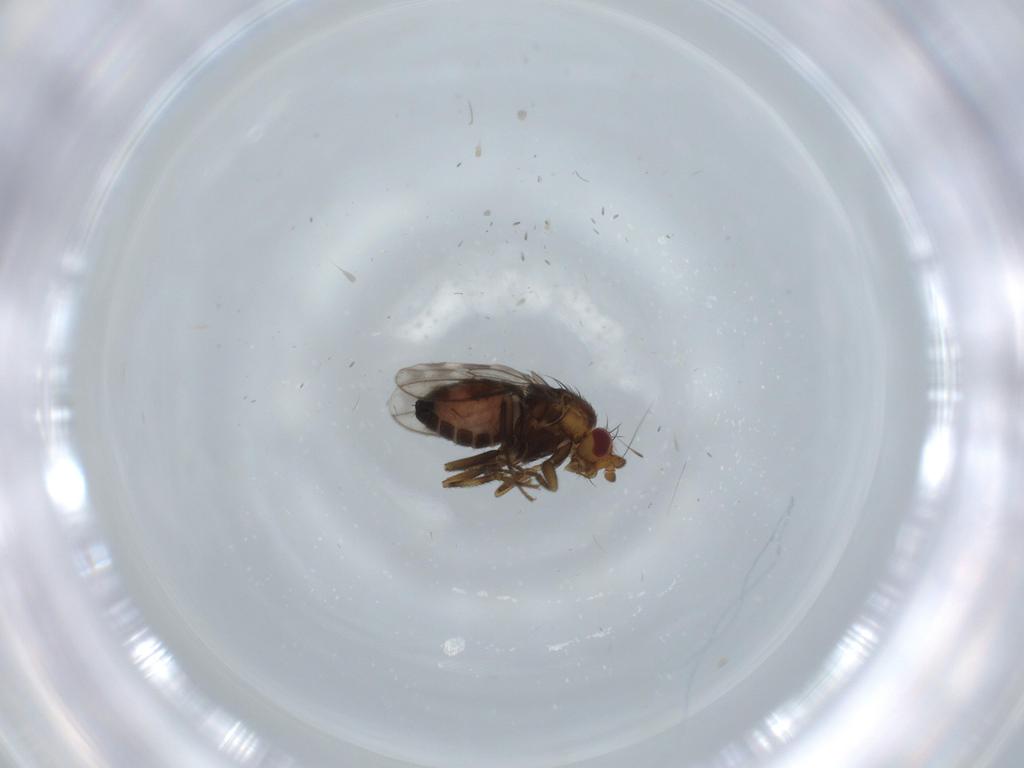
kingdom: Animalia
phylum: Arthropoda
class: Insecta
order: Diptera
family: Sphaeroceridae
